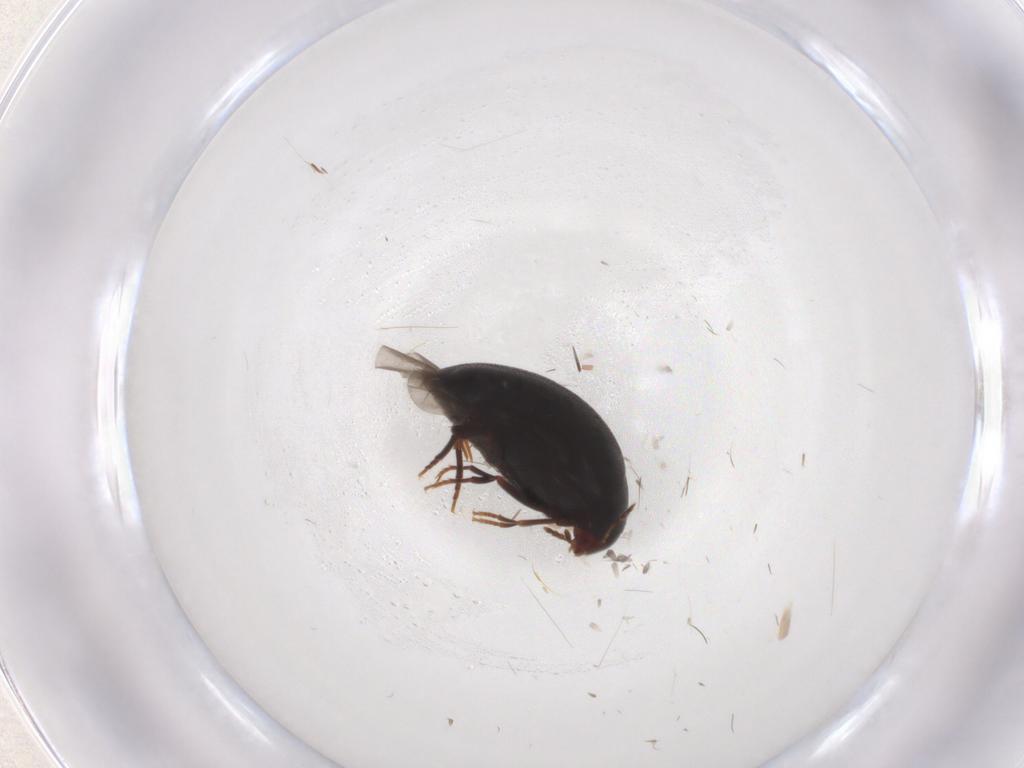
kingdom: Animalia
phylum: Arthropoda
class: Insecta
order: Coleoptera
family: Melandryidae
